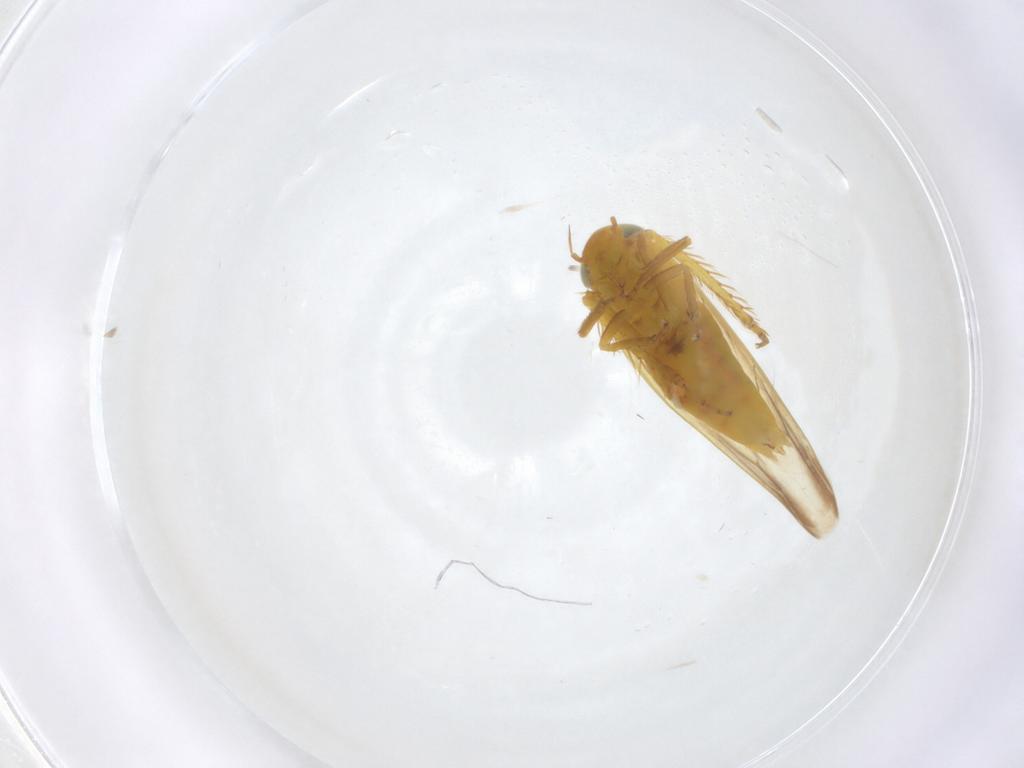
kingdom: Animalia
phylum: Arthropoda
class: Insecta
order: Hemiptera
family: Cicadellidae
